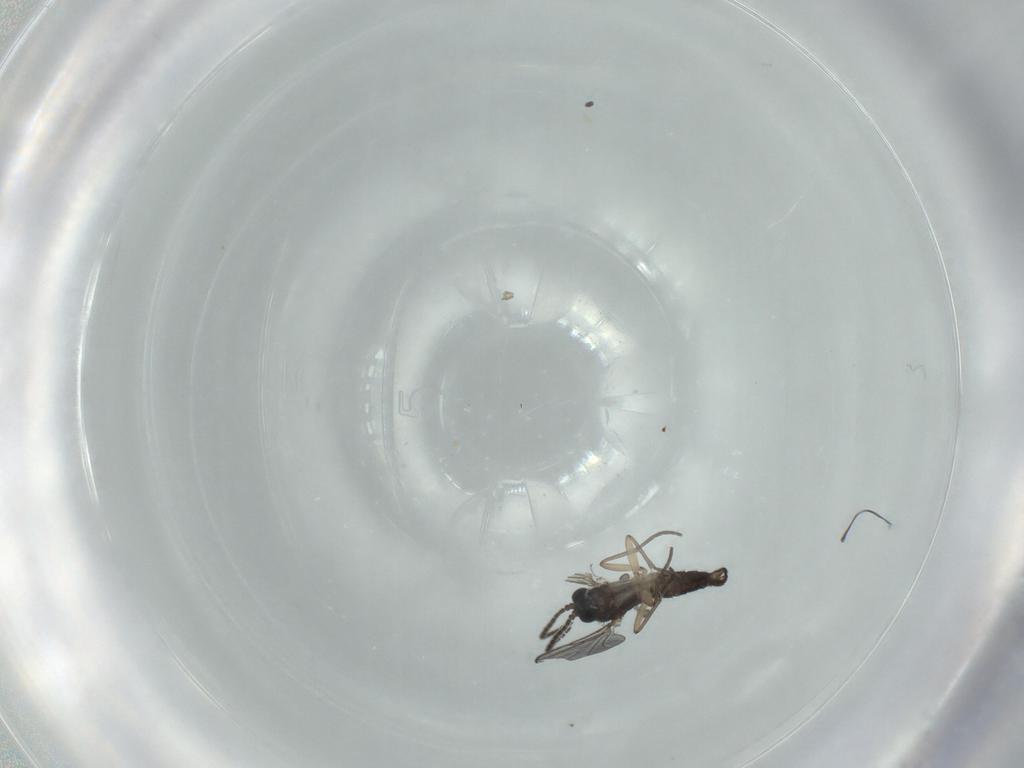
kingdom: Animalia
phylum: Arthropoda
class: Insecta
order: Diptera
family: Sciaridae
